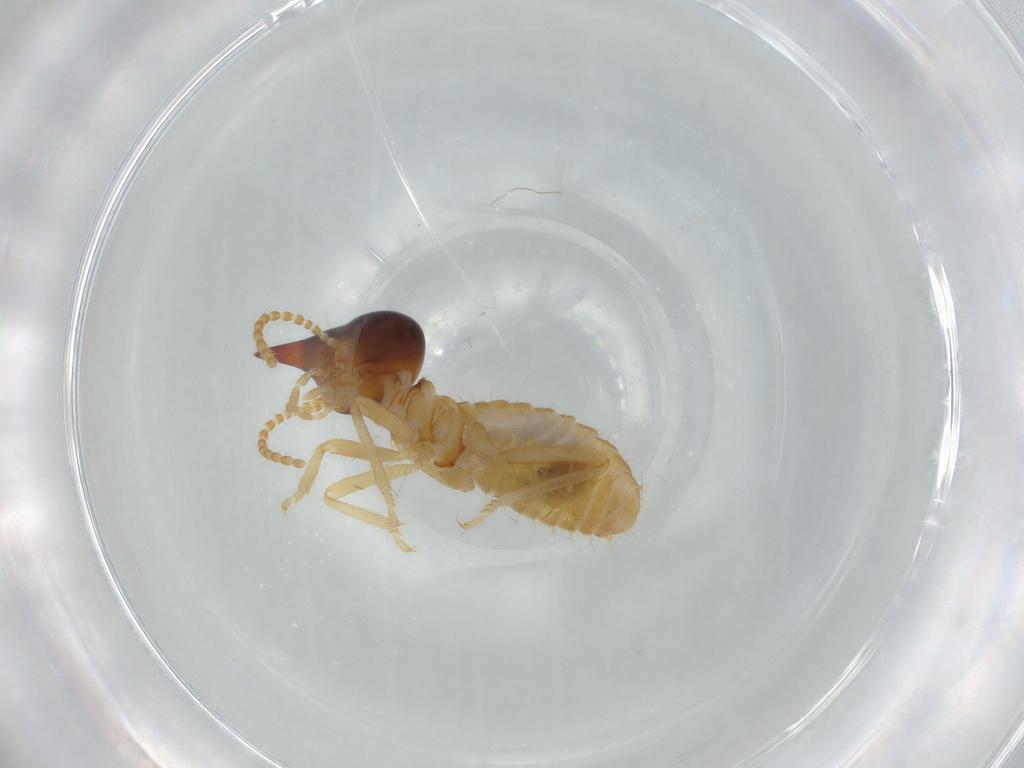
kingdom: Animalia
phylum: Arthropoda
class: Insecta
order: Blattodea
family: Termitidae
